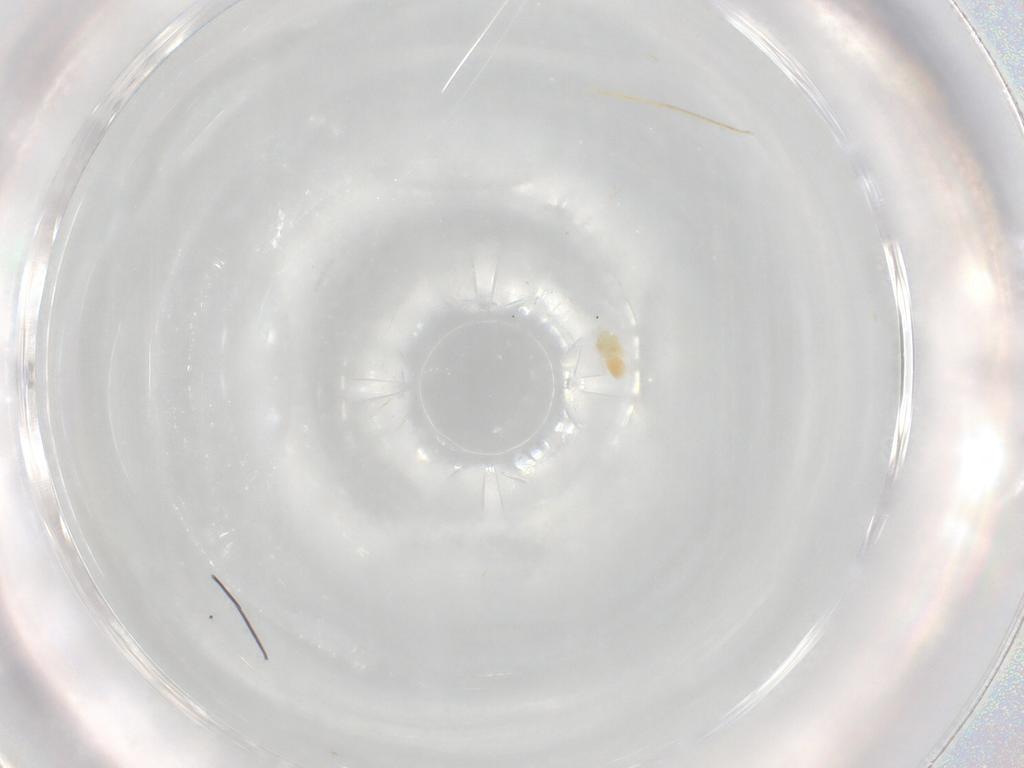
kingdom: Animalia
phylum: Arthropoda
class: Arachnida
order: Trombidiformes
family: Eupodidae
